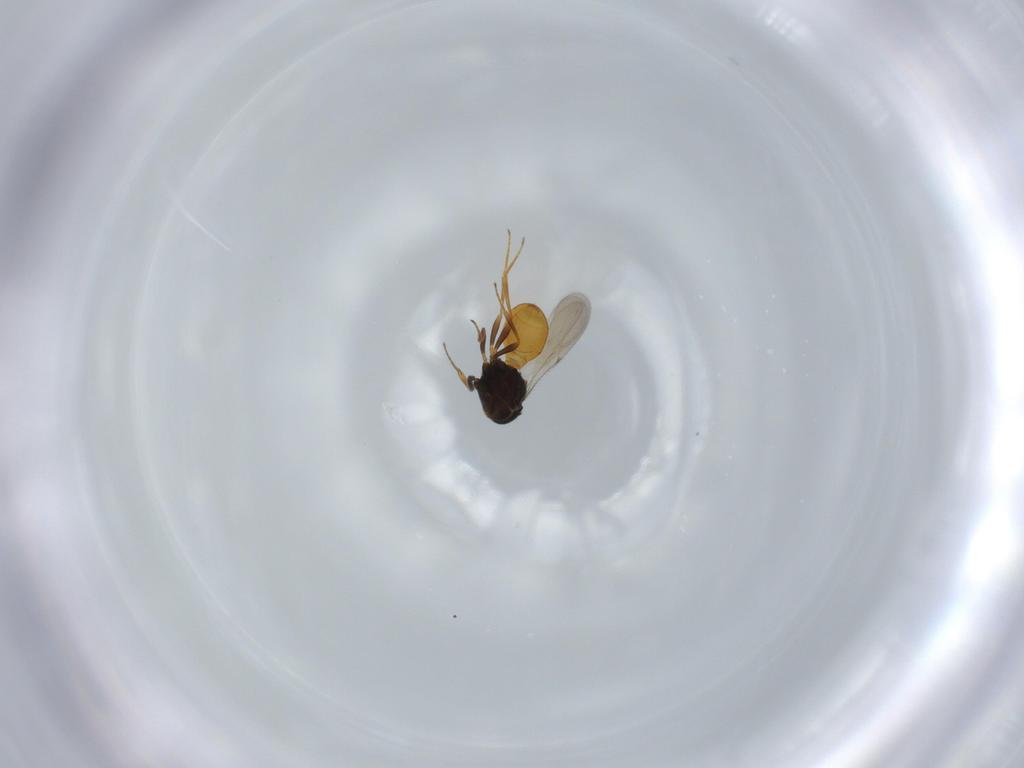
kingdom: Animalia
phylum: Arthropoda
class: Insecta
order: Hymenoptera
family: Scelionidae
